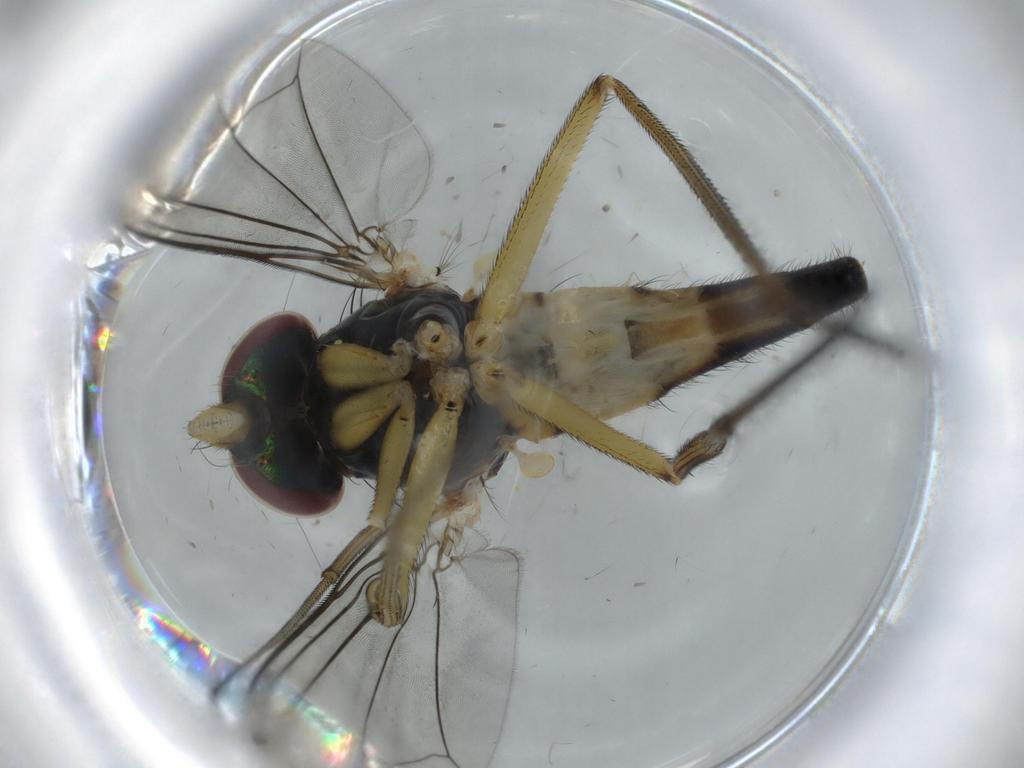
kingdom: Animalia
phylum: Arthropoda
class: Insecta
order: Diptera
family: Dolichopodidae
